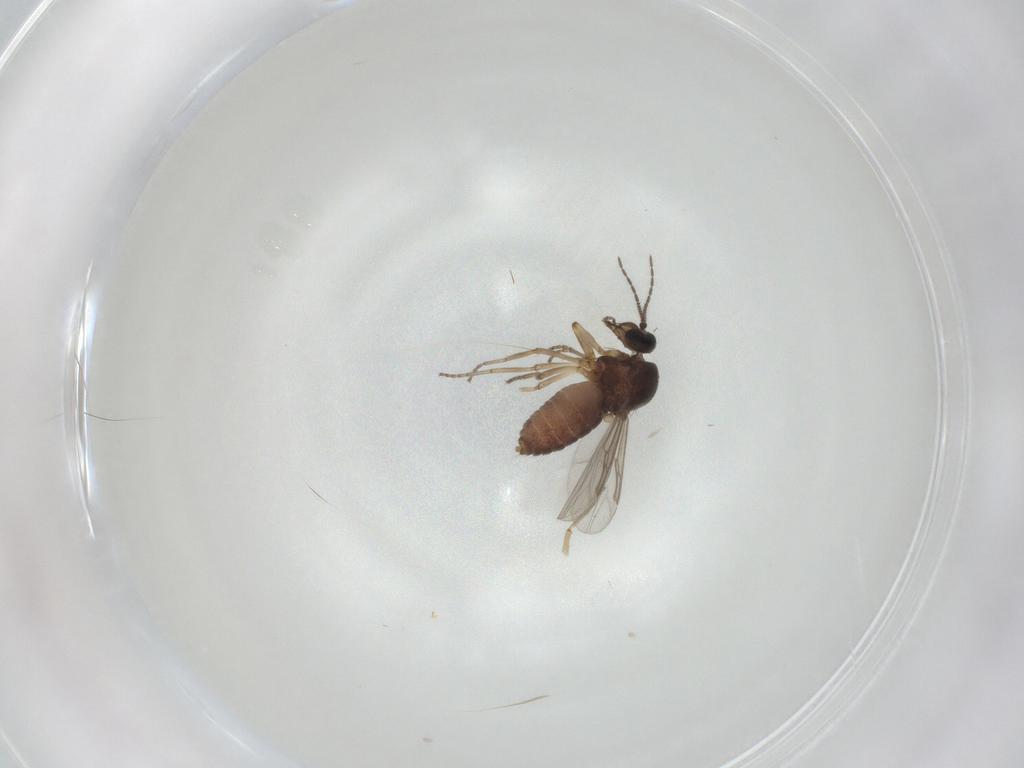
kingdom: Animalia
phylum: Arthropoda
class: Insecta
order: Diptera
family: Ceratopogonidae
